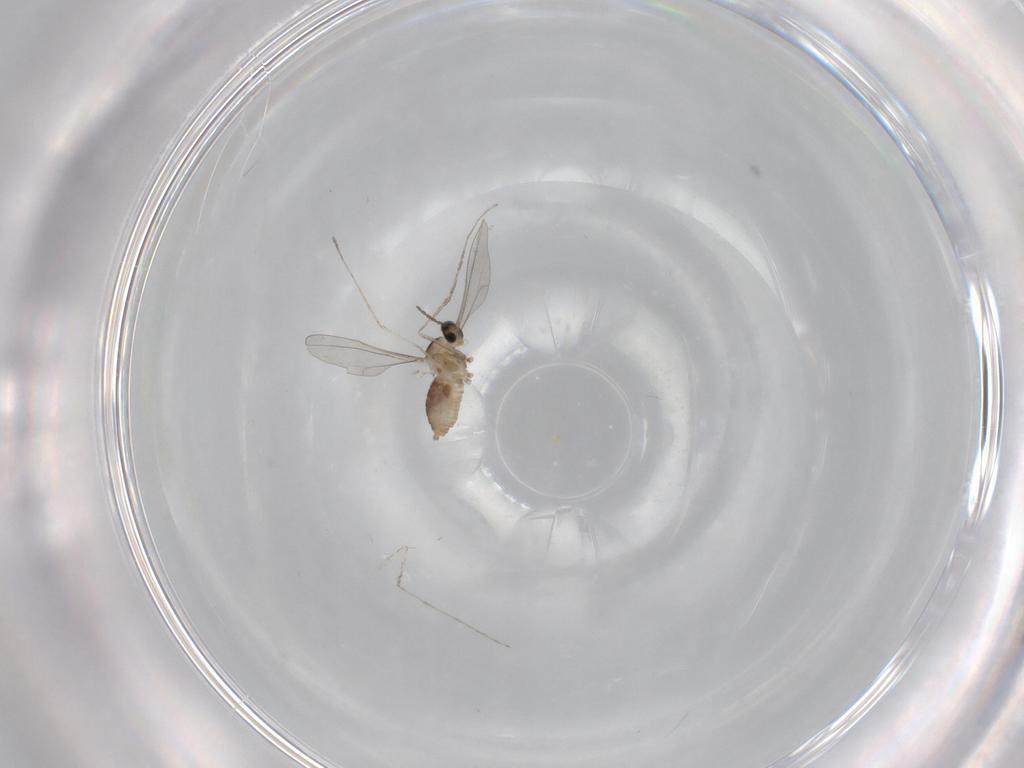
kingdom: Animalia
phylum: Arthropoda
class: Insecta
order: Diptera
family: Cecidomyiidae
